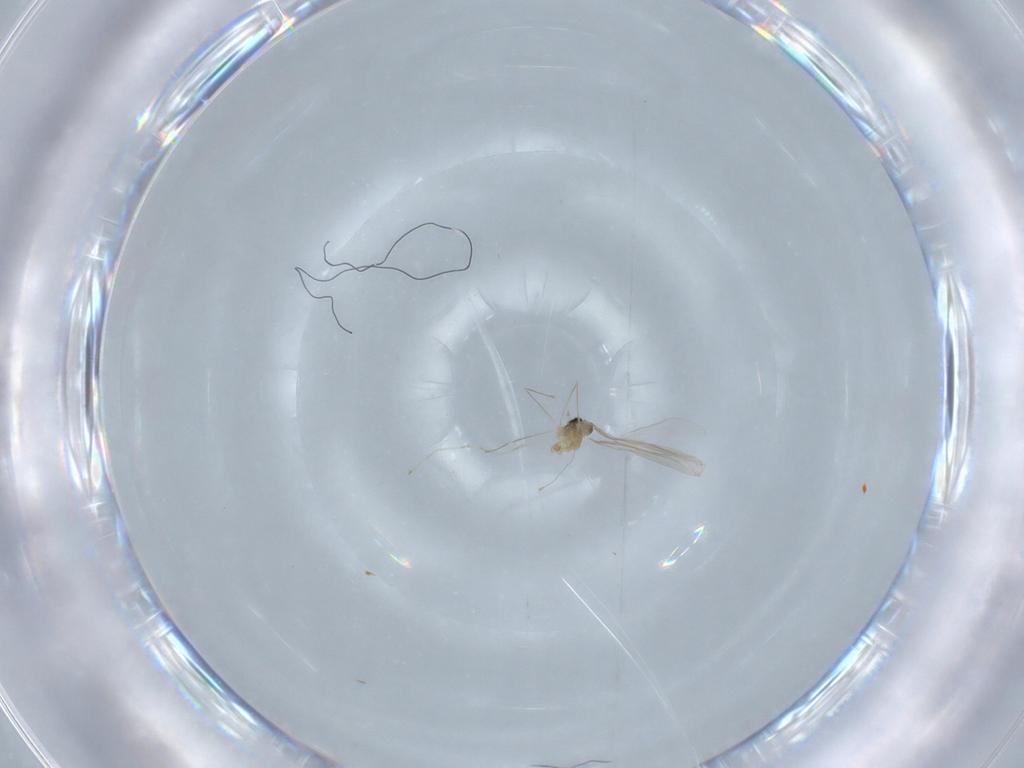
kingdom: Animalia
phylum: Arthropoda
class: Insecta
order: Diptera
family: Cecidomyiidae
